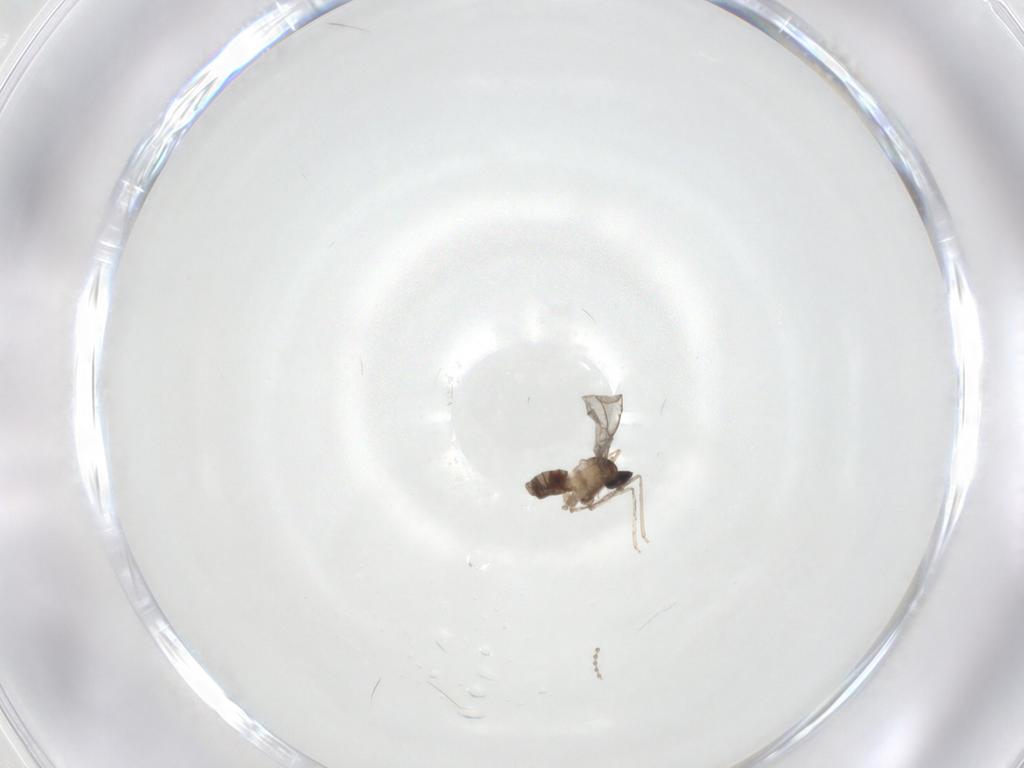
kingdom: Animalia
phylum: Arthropoda
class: Insecta
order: Diptera
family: Cecidomyiidae
